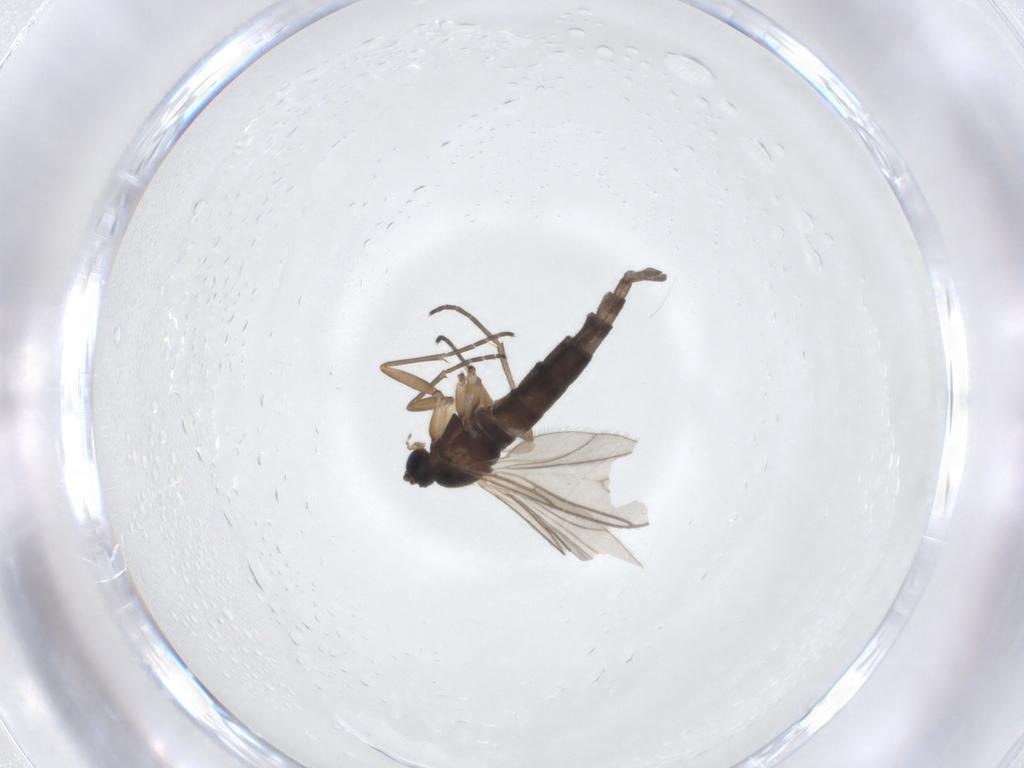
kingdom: Animalia
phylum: Arthropoda
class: Insecta
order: Diptera
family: Sciaridae
